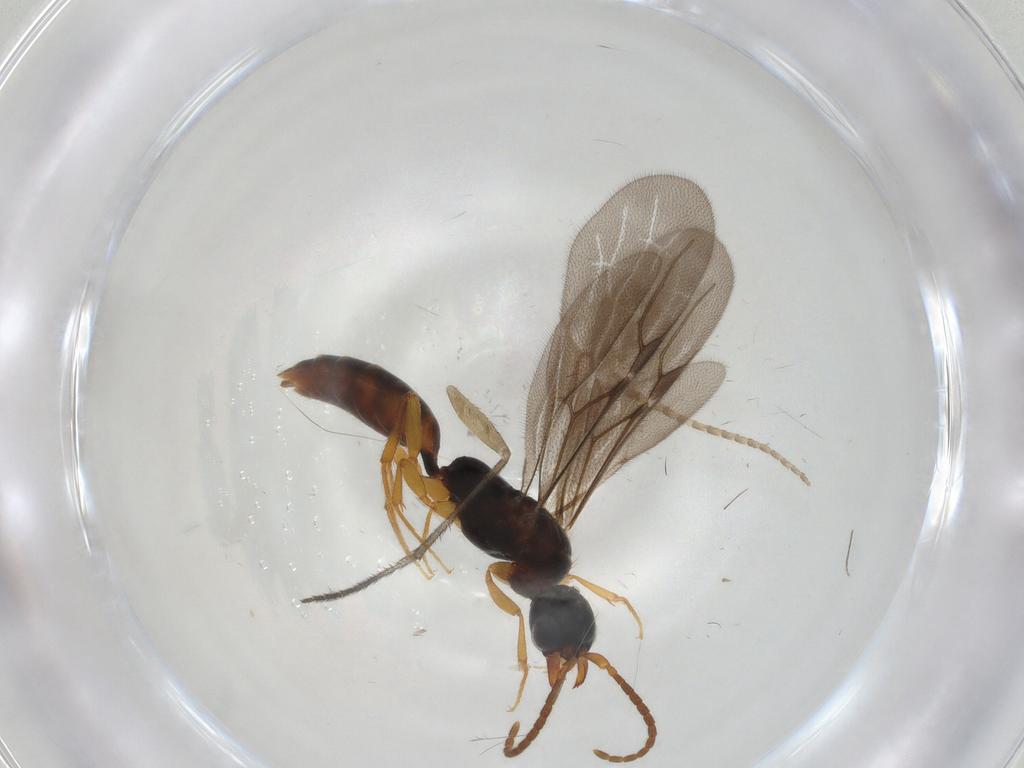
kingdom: Animalia
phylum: Arthropoda
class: Insecta
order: Hymenoptera
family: Bethylidae
